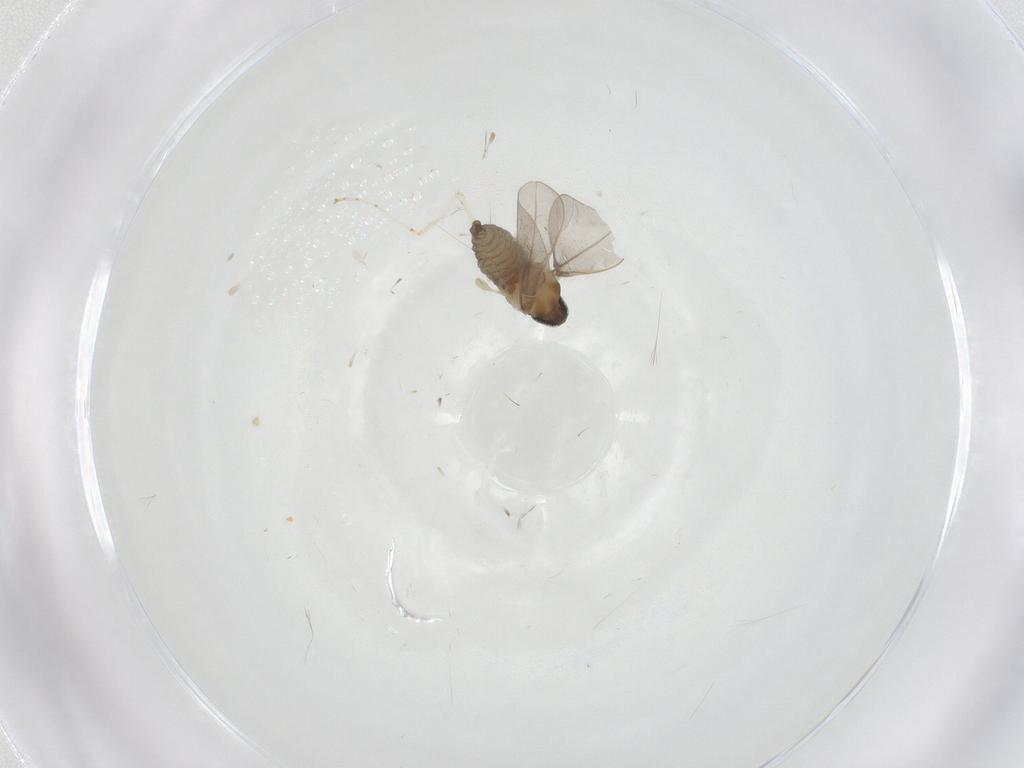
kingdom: Animalia
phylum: Arthropoda
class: Insecta
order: Diptera
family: Cecidomyiidae
